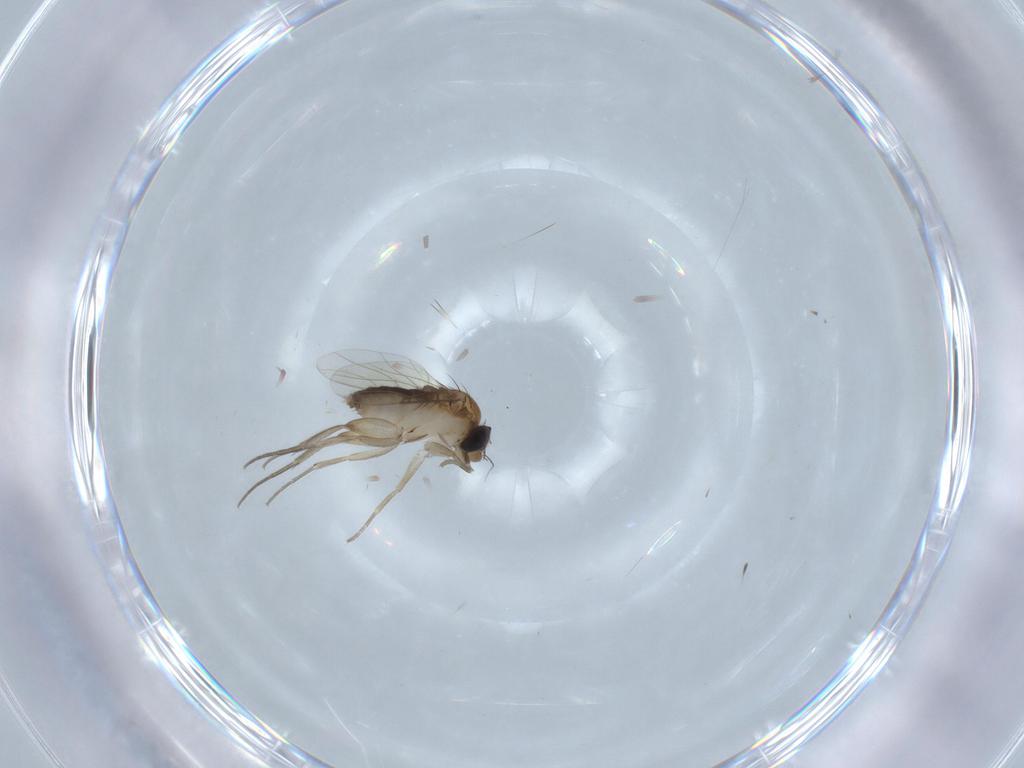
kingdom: Animalia
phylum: Arthropoda
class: Insecta
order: Diptera
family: Phoridae
